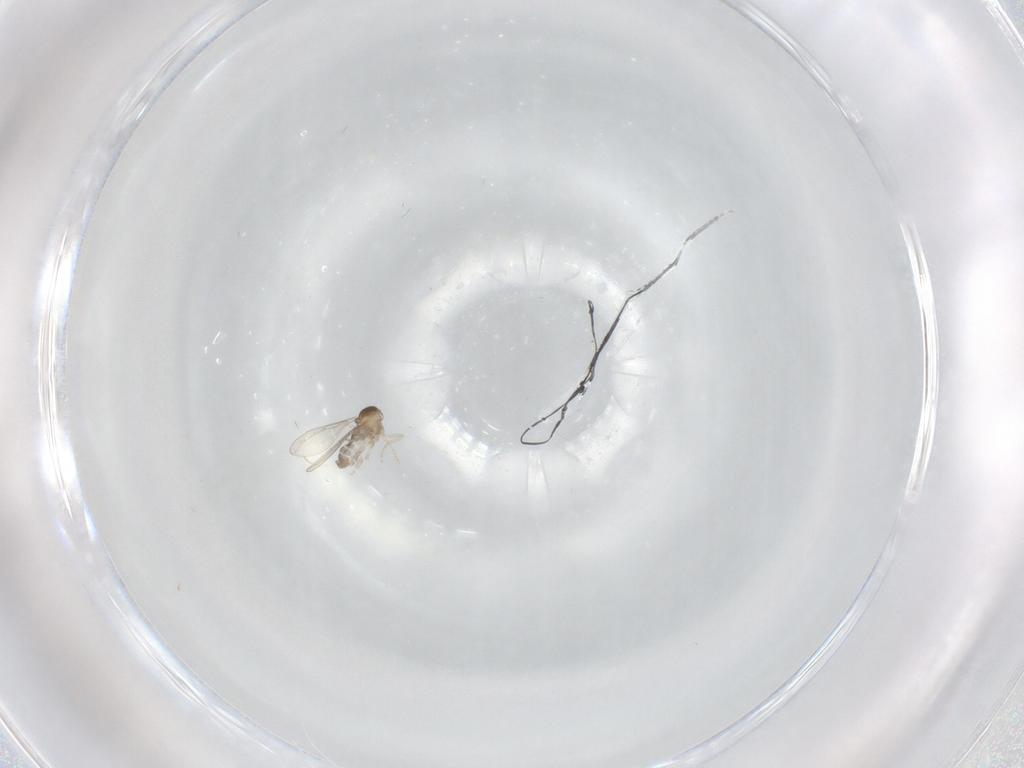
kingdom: Animalia
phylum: Arthropoda
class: Insecta
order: Diptera
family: Cecidomyiidae
